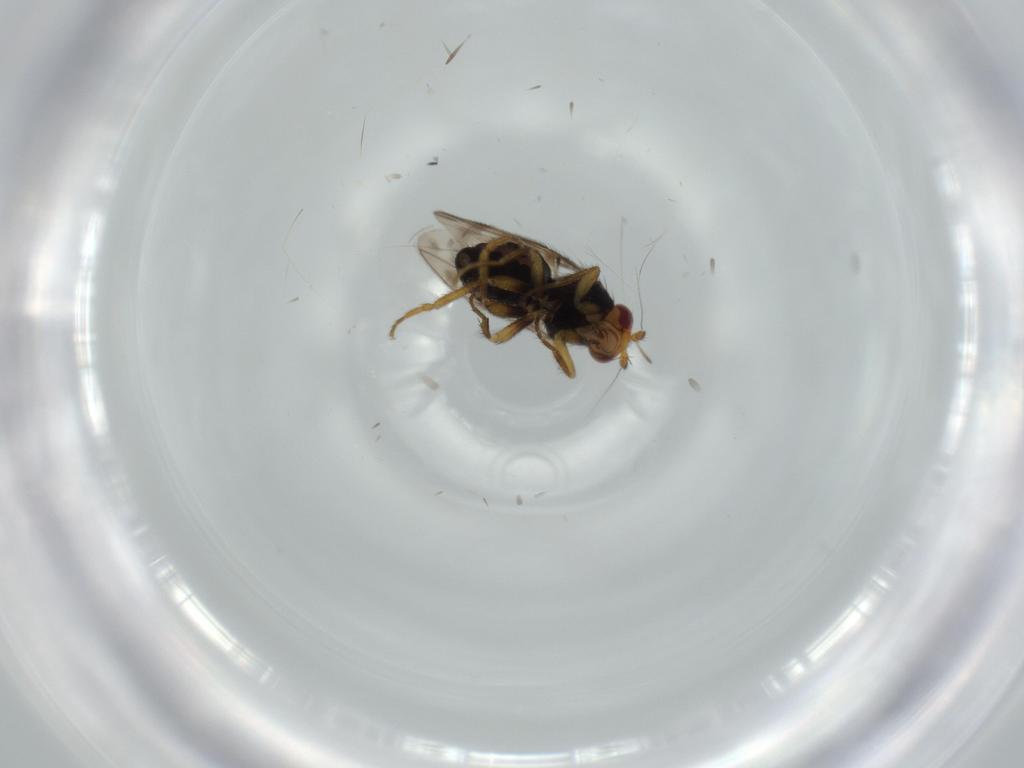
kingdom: Animalia
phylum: Arthropoda
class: Insecta
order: Diptera
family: Sphaeroceridae
